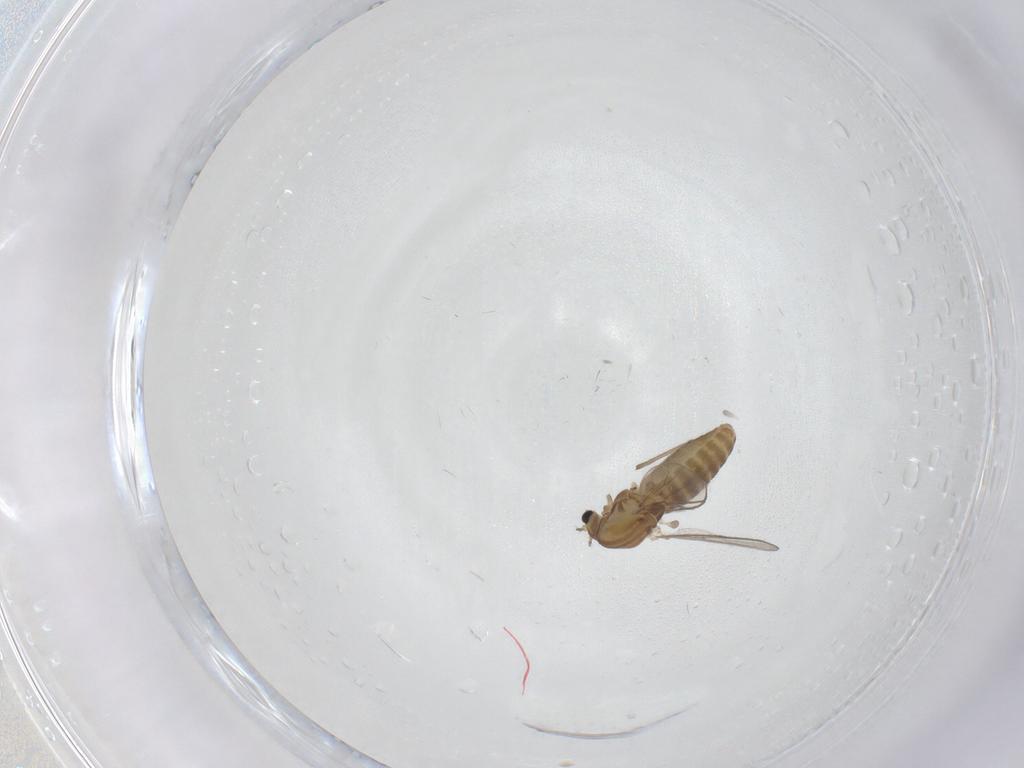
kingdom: Animalia
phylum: Arthropoda
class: Insecta
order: Diptera
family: Chironomidae
